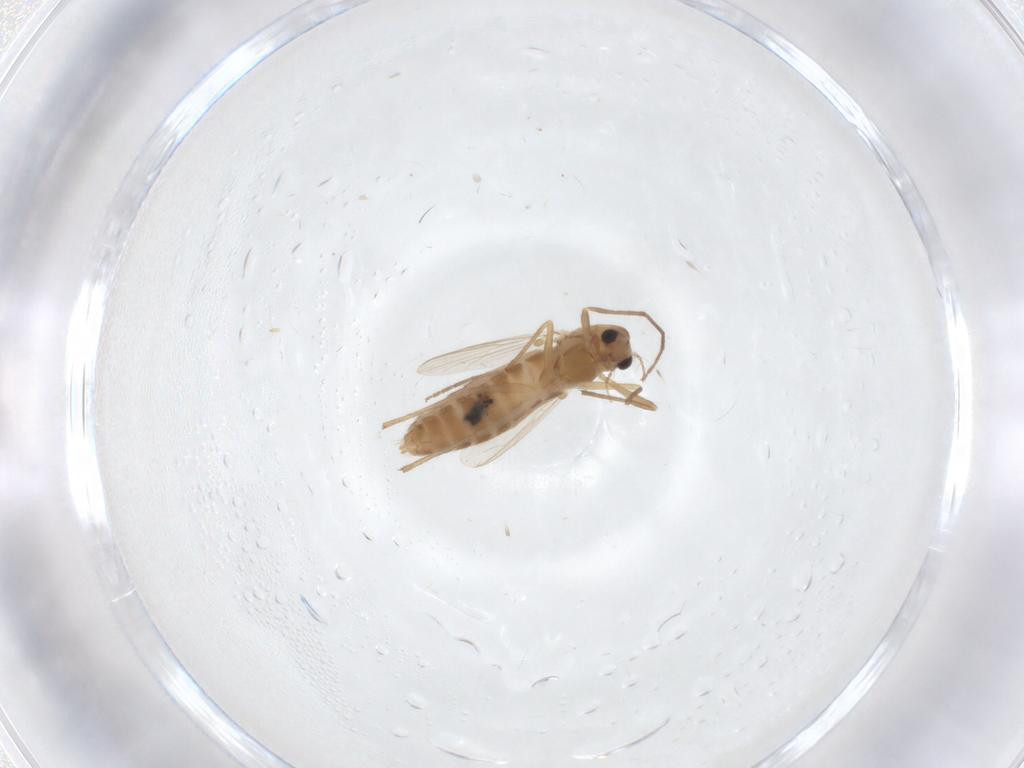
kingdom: Animalia
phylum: Arthropoda
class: Insecta
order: Diptera
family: Chironomidae
